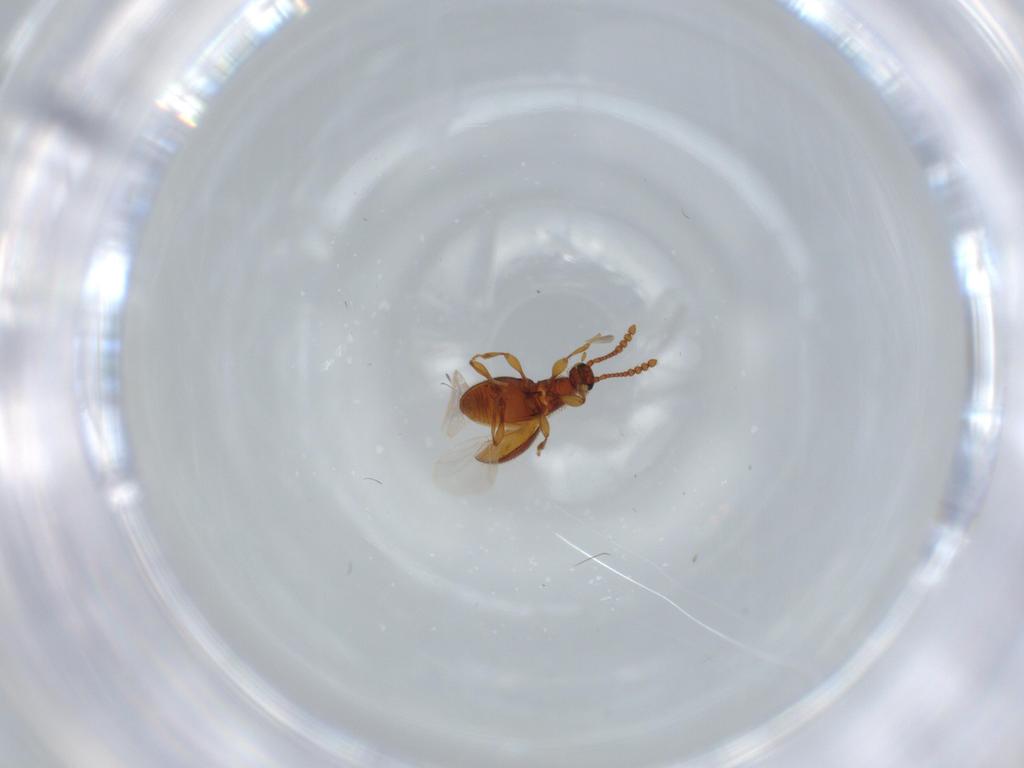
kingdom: Animalia
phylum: Arthropoda
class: Insecta
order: Coleoptera
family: Staphylinidae
